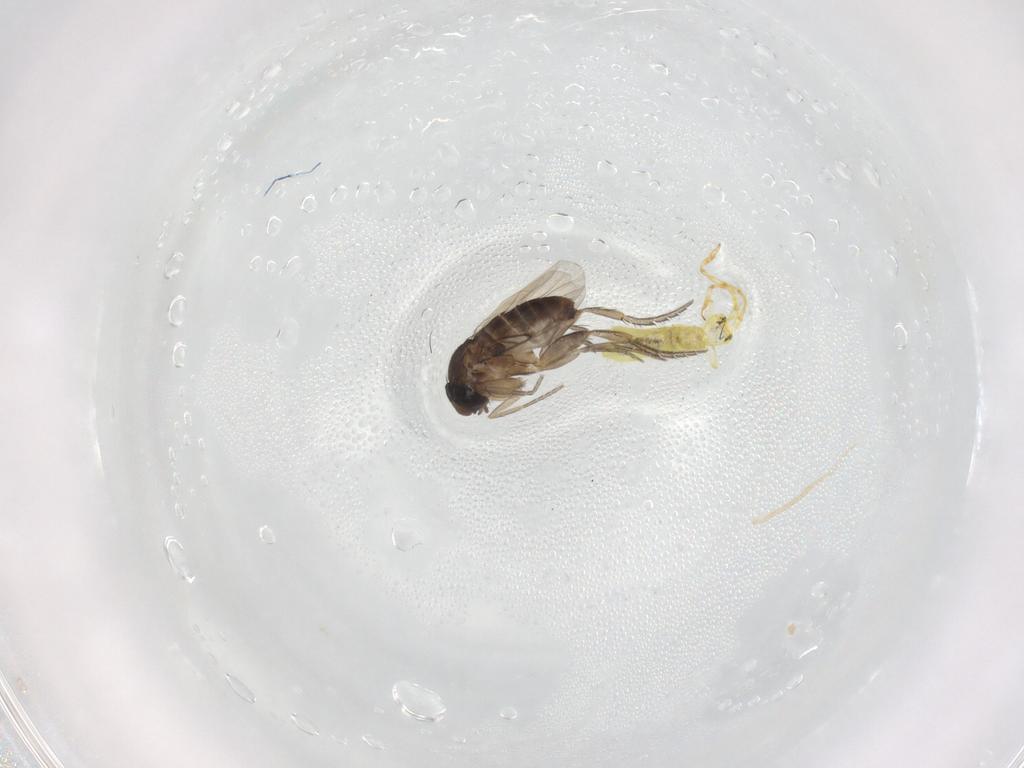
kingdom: Animalia
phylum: Arthropoda
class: Insecta
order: Diptera
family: Phoridae
